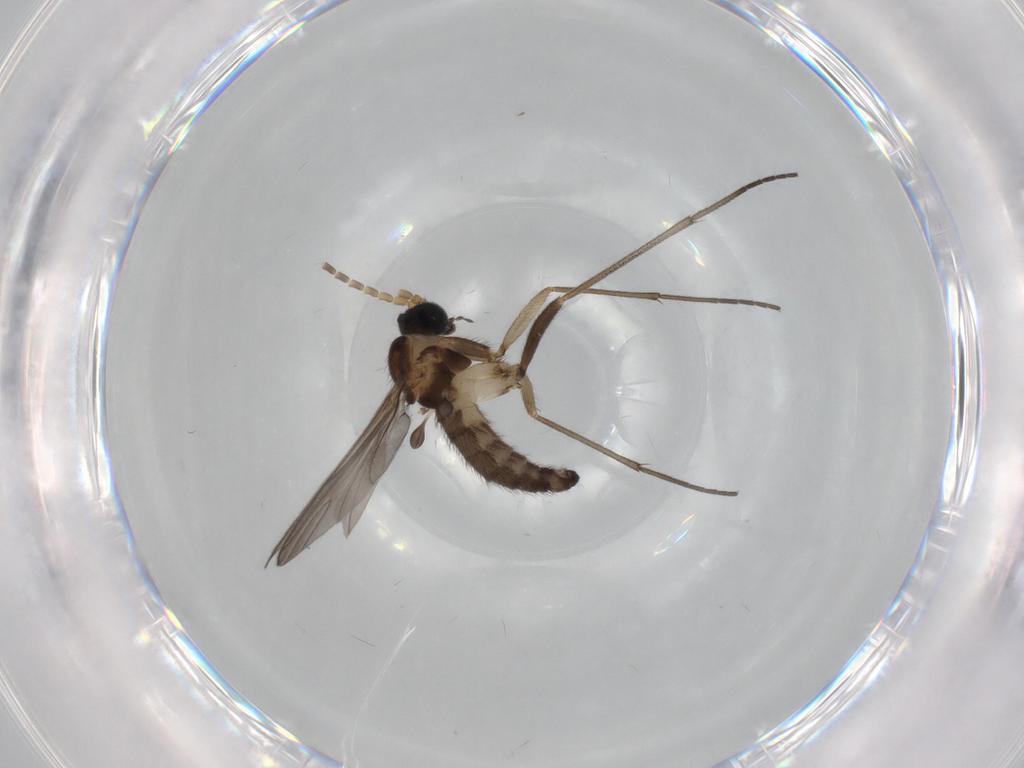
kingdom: Animalia
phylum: Arthropoda
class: Insecta
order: Diptera
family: Sciaridae
